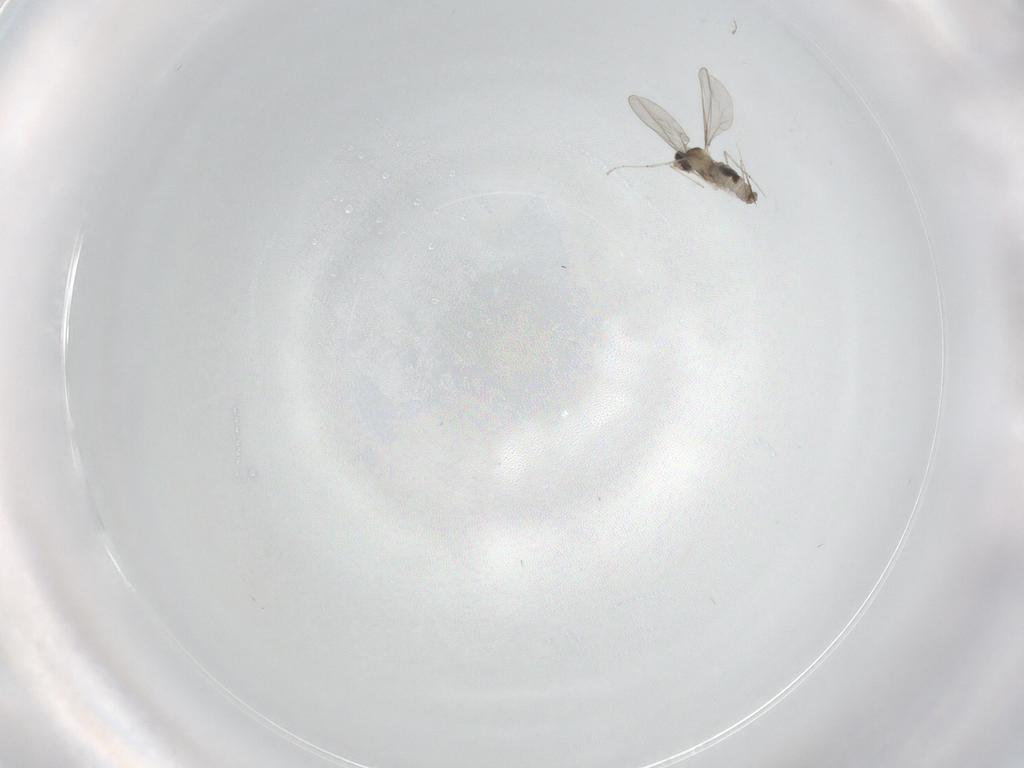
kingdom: Animalia
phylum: Arthropoda
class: Insecta
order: Diptera
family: Cecidomyiidae
